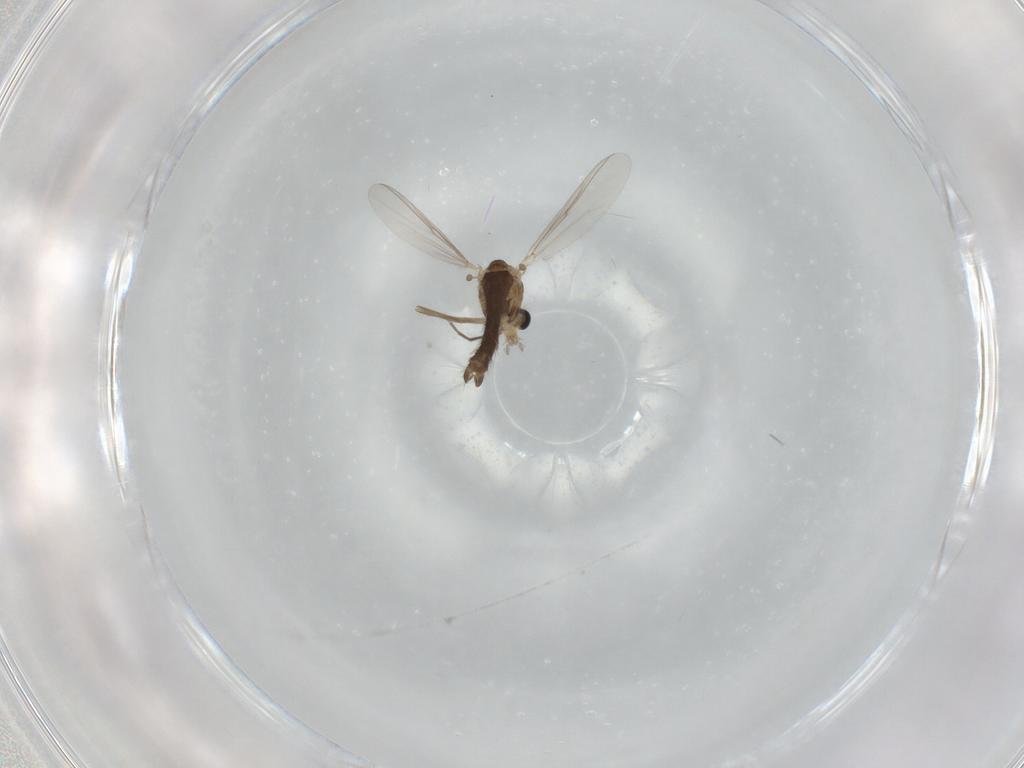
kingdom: Animalia
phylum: Arthropoda
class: Insecta
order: Diptera
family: Chironomidae
